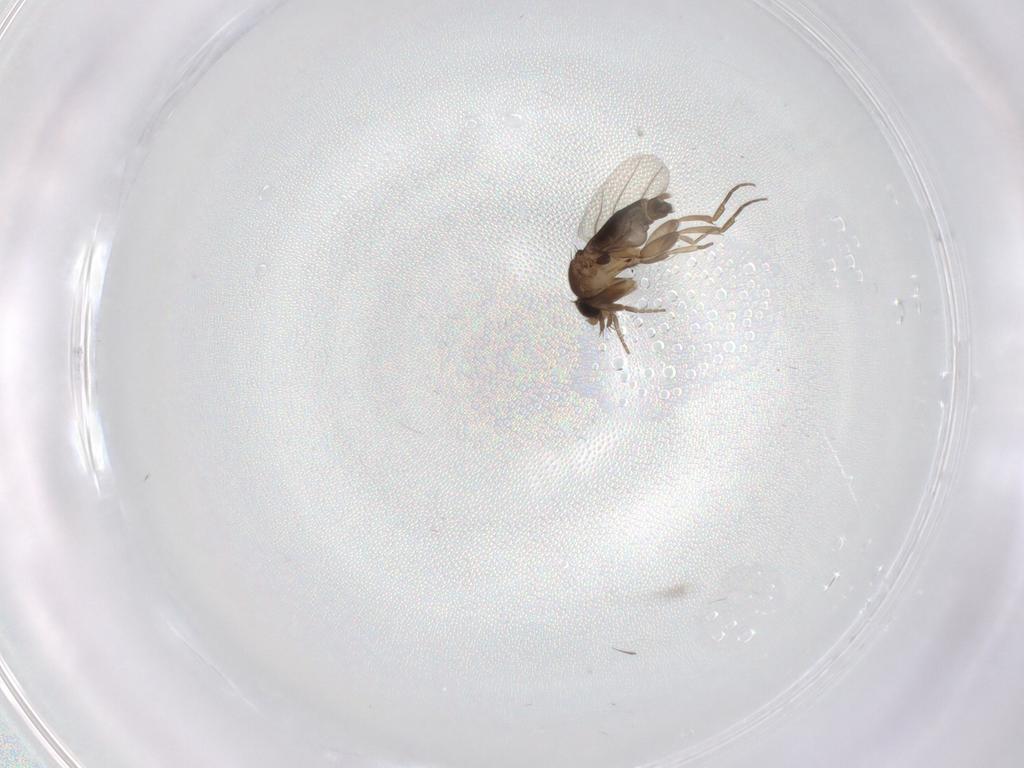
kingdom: Animalia
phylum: Arthropoda
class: Insecta
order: Diptera
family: Phoridae
